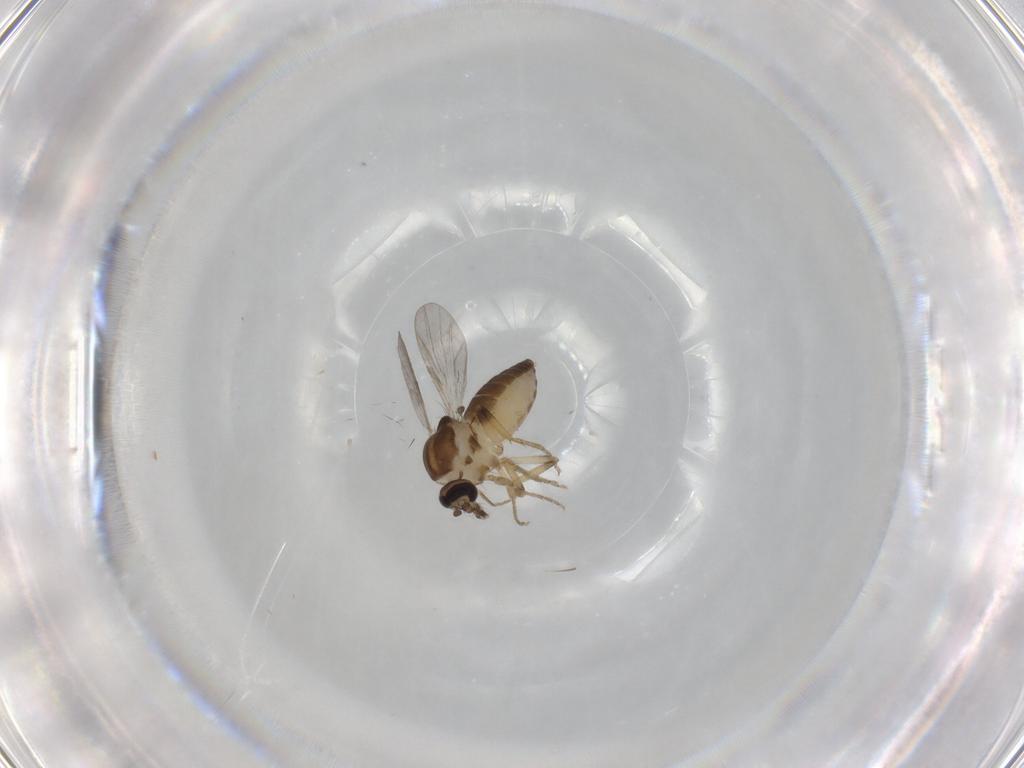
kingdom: Animalia
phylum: Arthropoda
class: Insecta
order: Diptera
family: Ceratopogonidae
